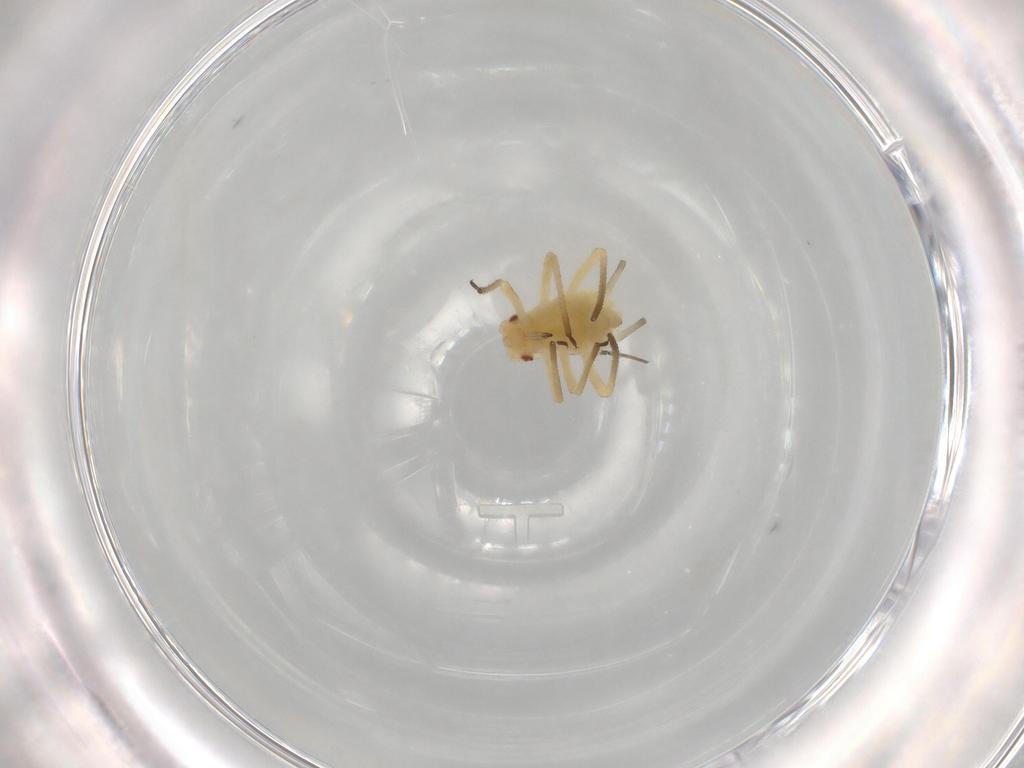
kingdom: Animalia
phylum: Arthropoda
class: Insecta
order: Hemiptera
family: Aphididae
